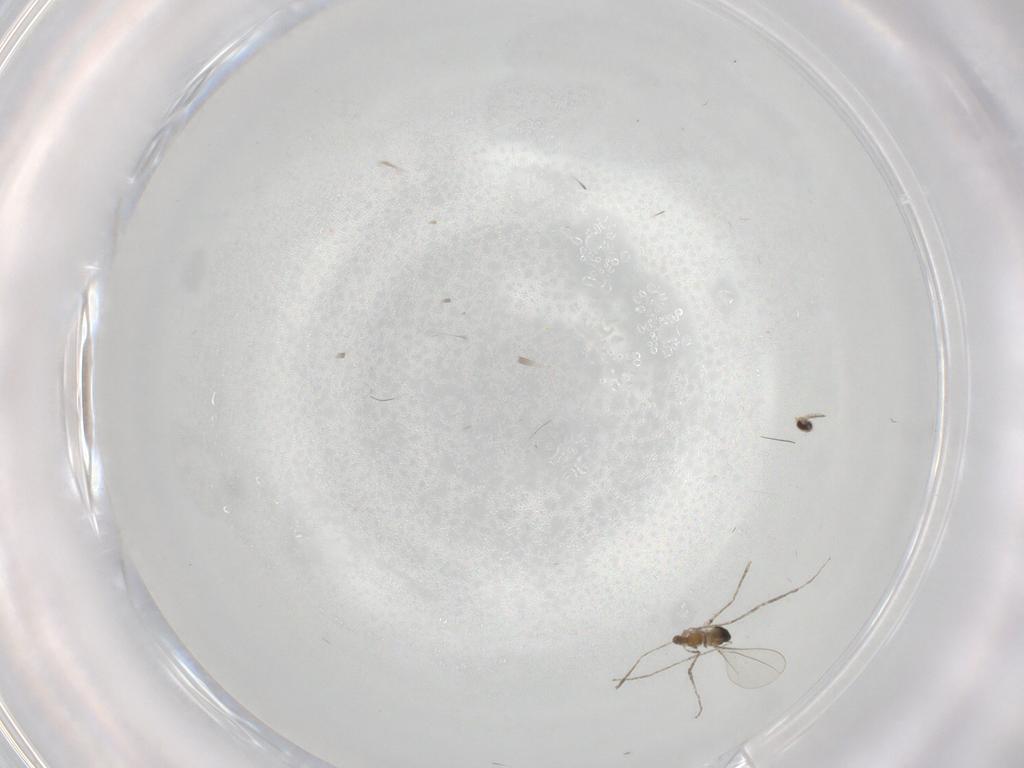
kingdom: Animalia
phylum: Arthropoda
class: Insecta
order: Diptera
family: Cecidomyiidae
